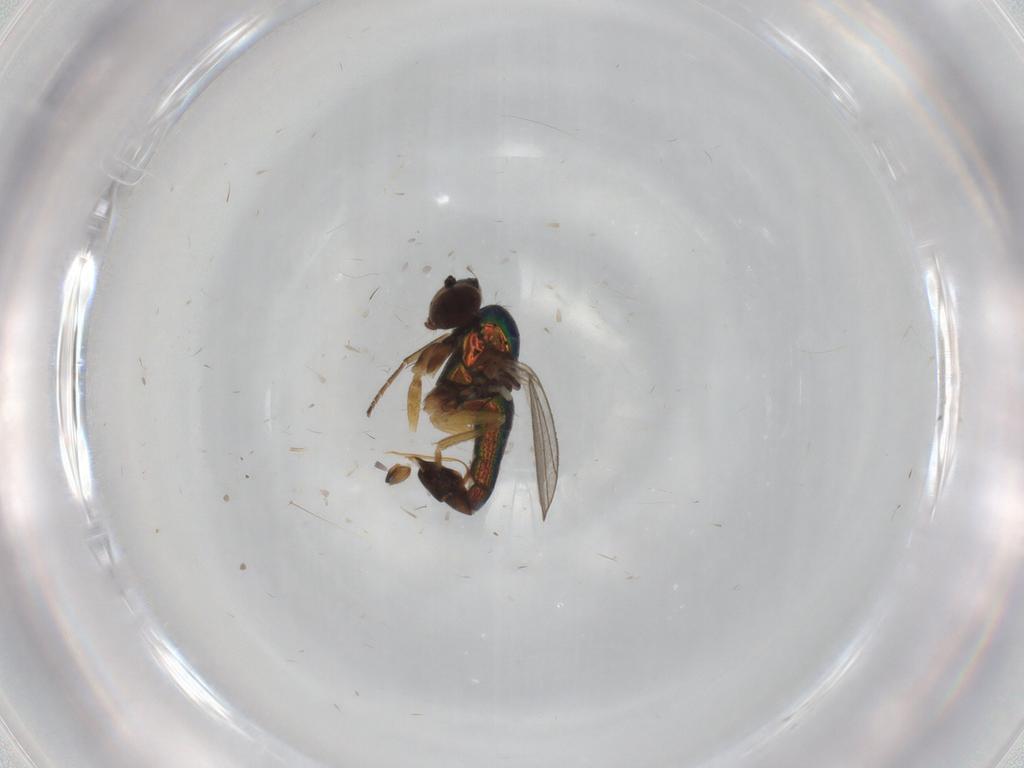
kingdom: Animalia
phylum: Arthropoda
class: Insecta
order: Diptera
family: Dolichopodidae
